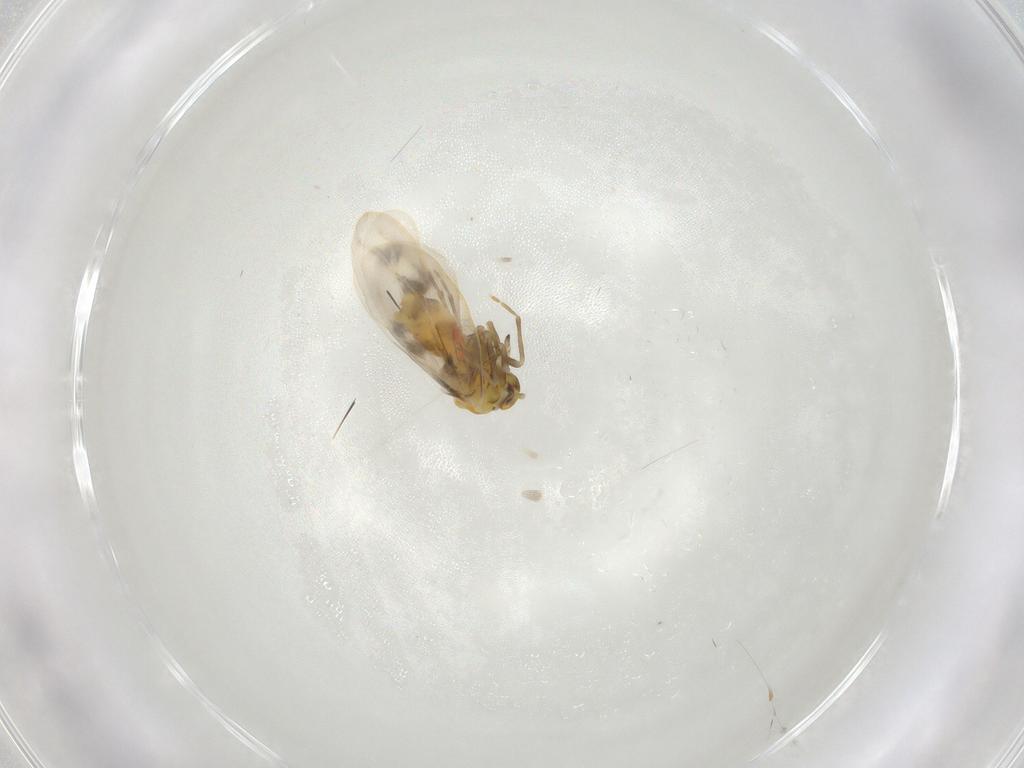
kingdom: Animalia
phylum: Arthropoda
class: Insecta
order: Hemiptera
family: Aleyrodidae
